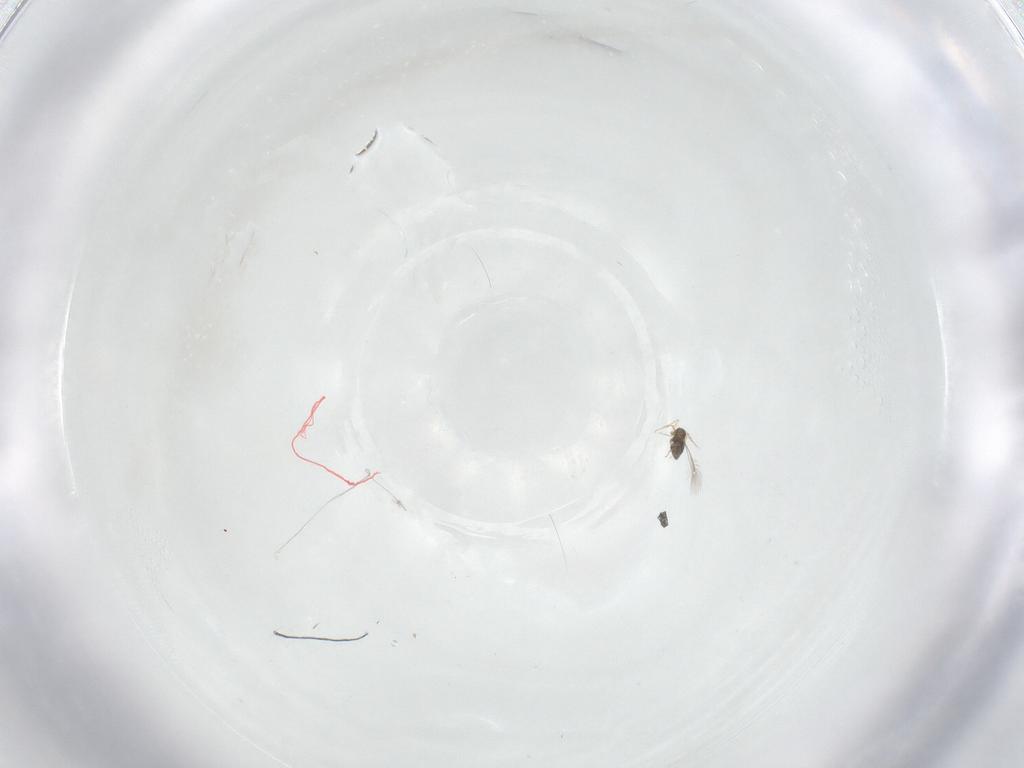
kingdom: Animalia
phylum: Arthropoda
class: Insecta
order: Hymenoptera
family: Mymaridae
